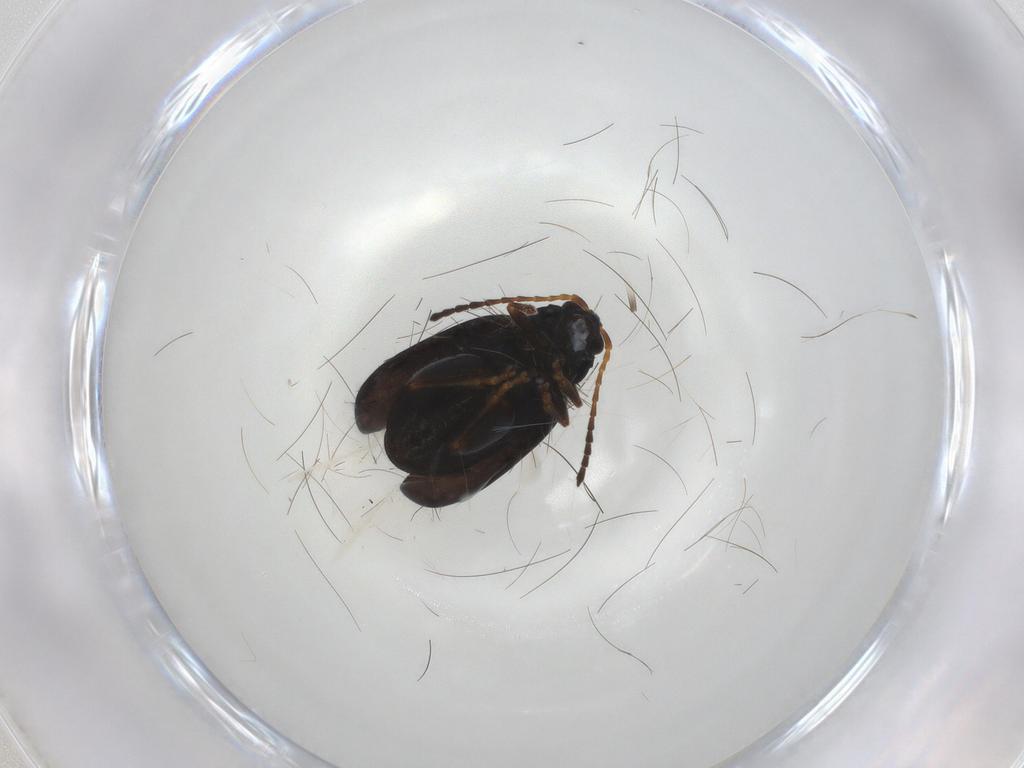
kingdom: Animalia
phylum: Arthropoda
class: Insecta
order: Coleoptera
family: Chrysomelidae
